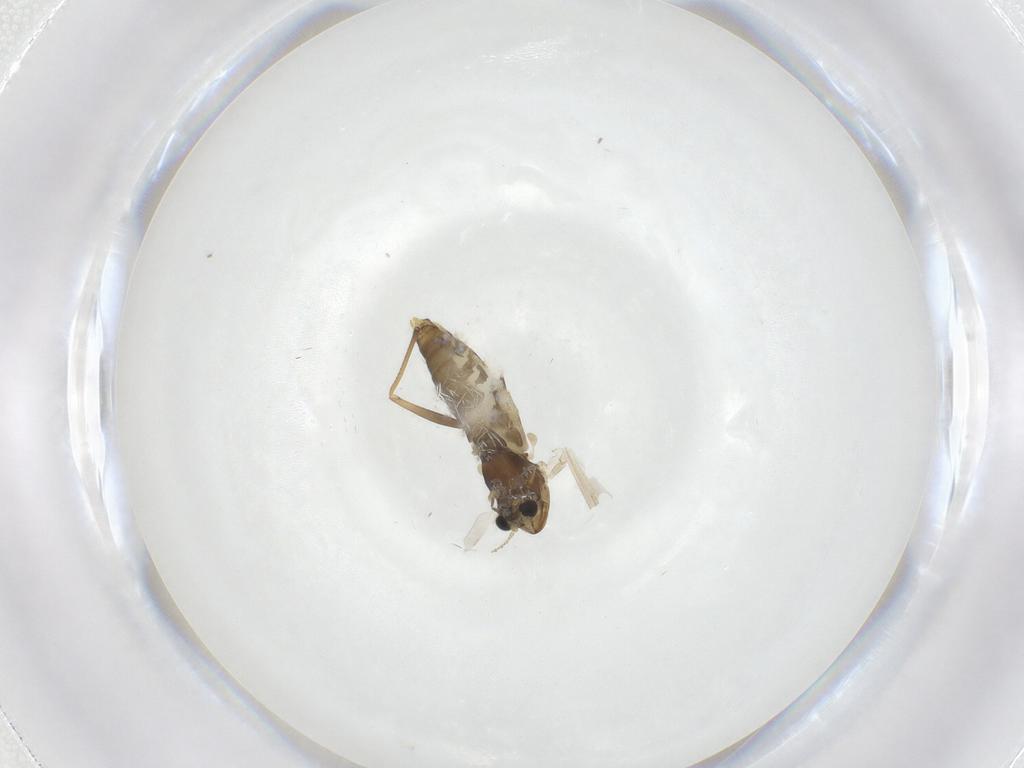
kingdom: Animalia
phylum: Arthropoda
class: Insecta
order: Diptera
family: Chironomidae
